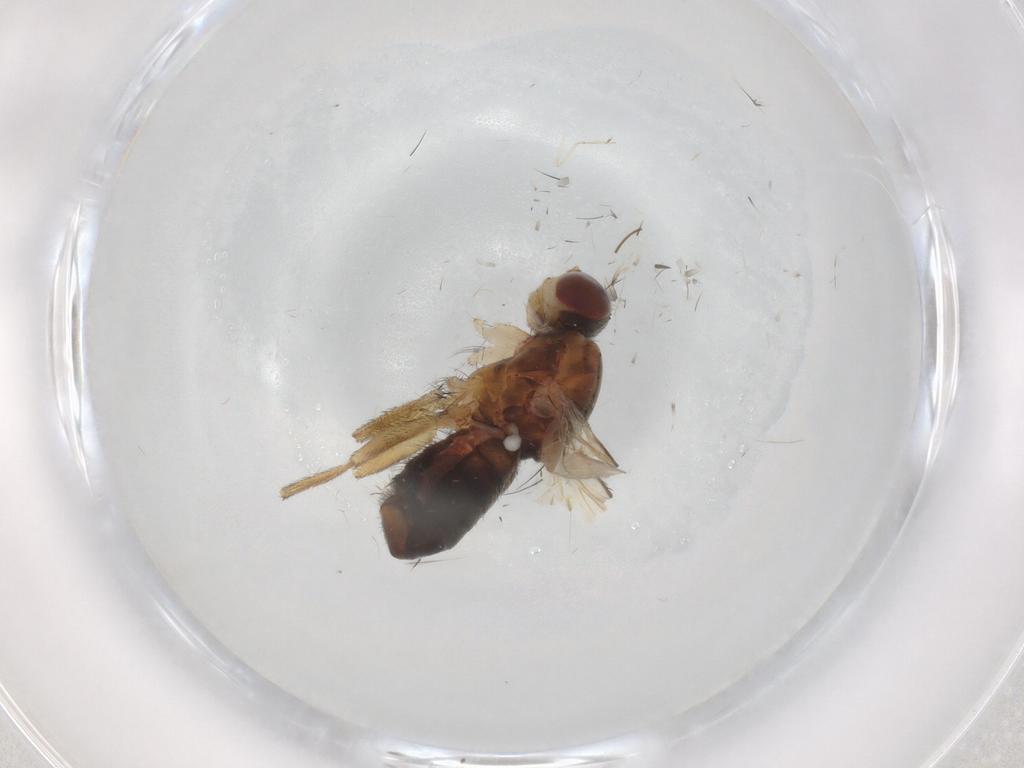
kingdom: Animalia
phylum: Arthropoda
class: Insecta
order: Diptera
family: Heleomyzidae
